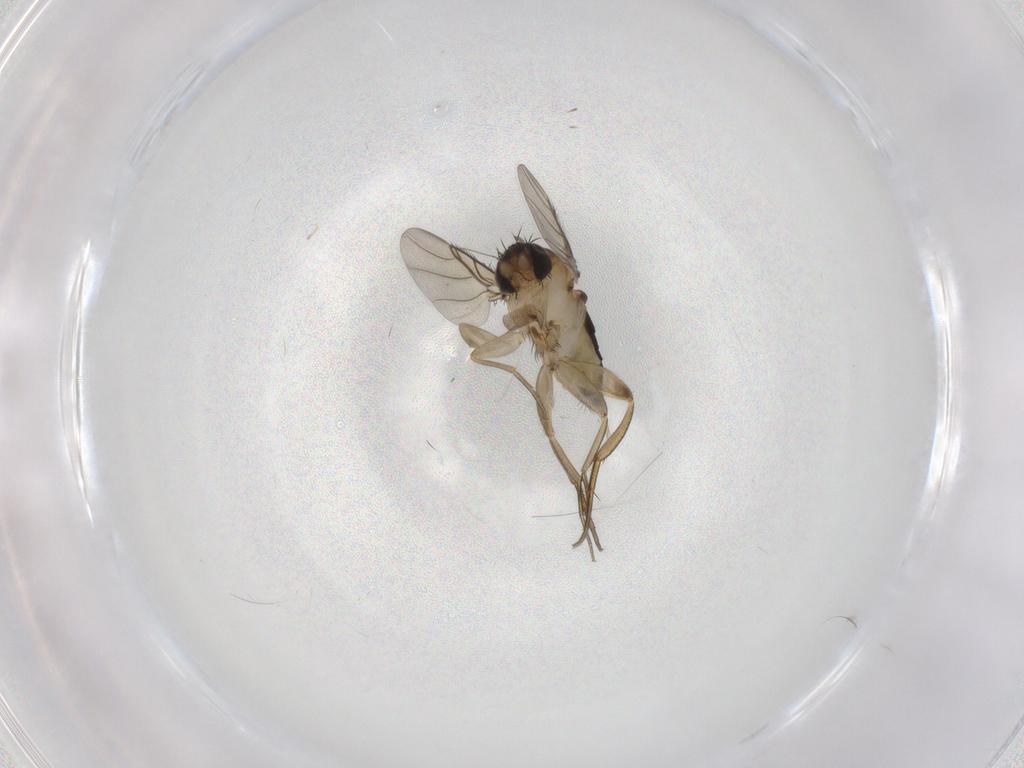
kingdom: Animalia
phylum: Arthropoda
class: Insecta
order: Diptera
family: Phoridae
